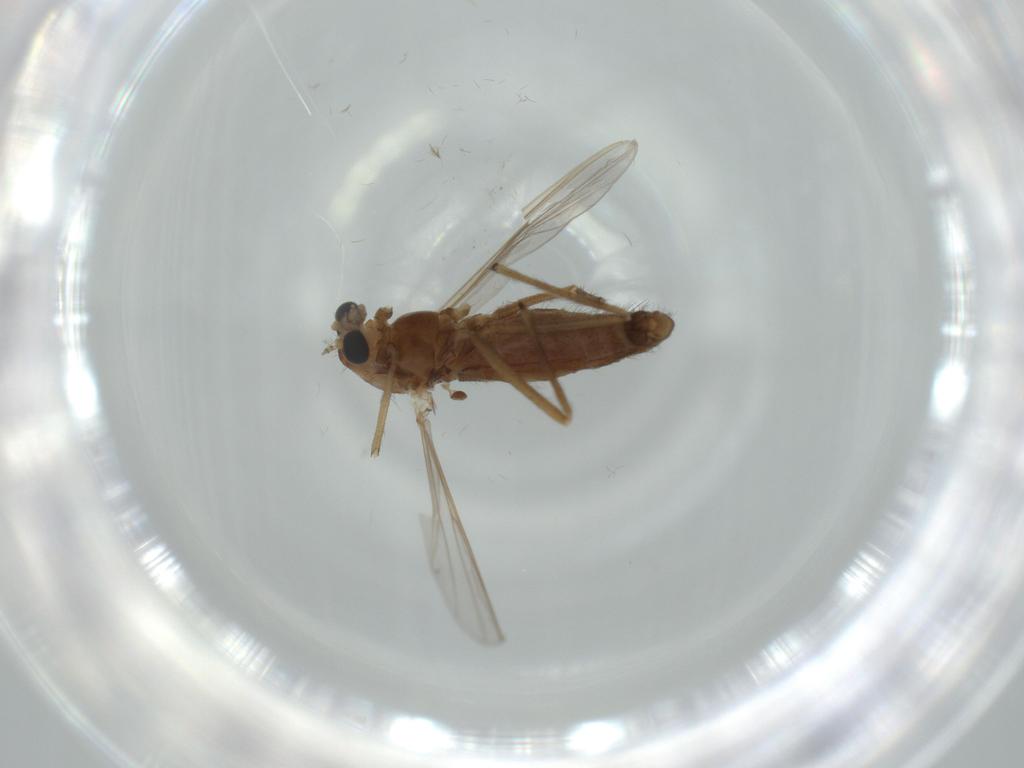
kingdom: Animalia
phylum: Arthropoda
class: Insecta
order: Diptera
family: Chironomidae
